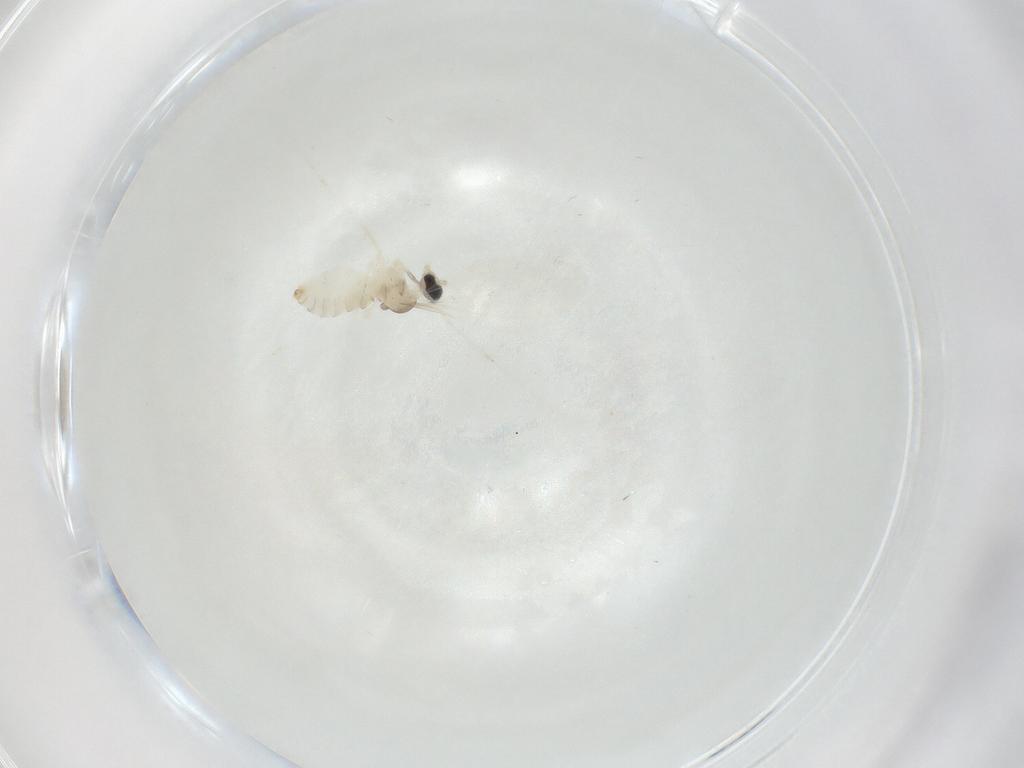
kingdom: Animalia
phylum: Arthropoda
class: Insecta
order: Diptera
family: Cecidomyiidae
